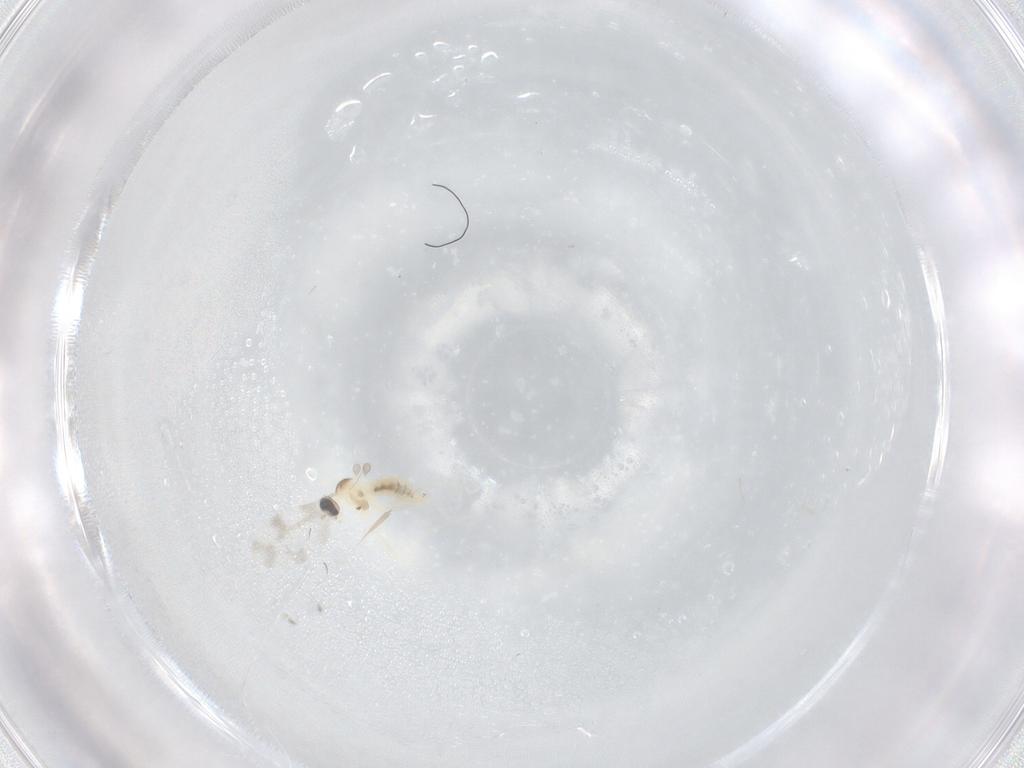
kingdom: Animalia
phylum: Arthropoda
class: Insecta
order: Diptera
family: Cecidomyiidae
